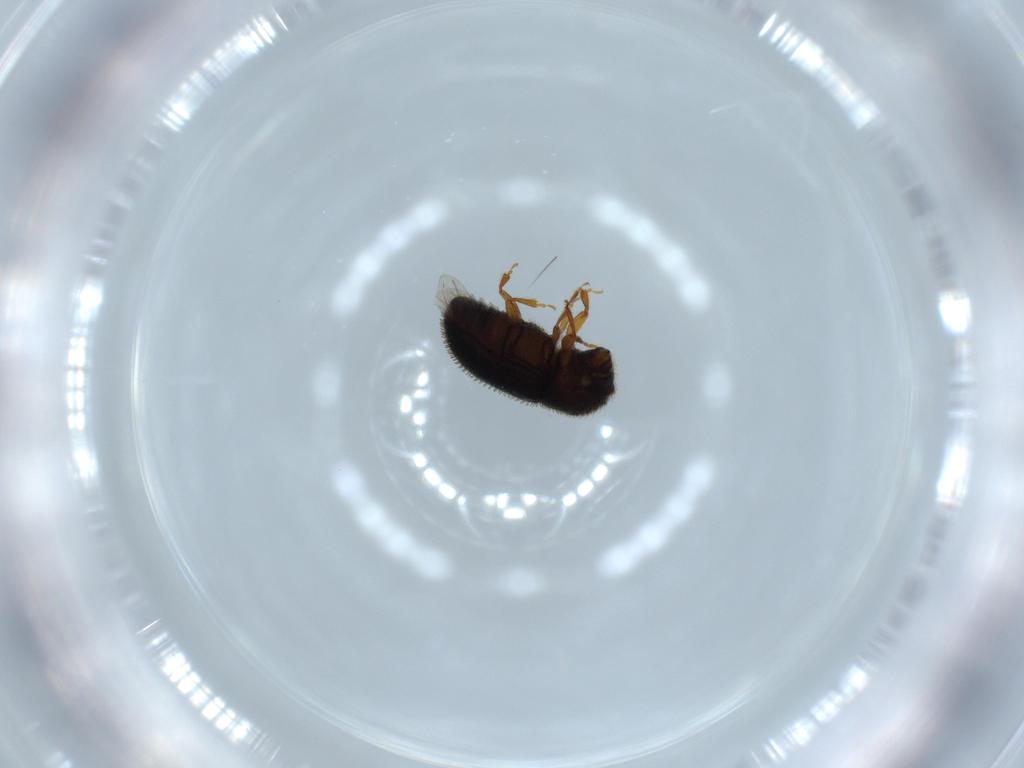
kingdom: Animalia
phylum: Arthropoda
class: Insecta
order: Coleoptera
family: Curculionidae
